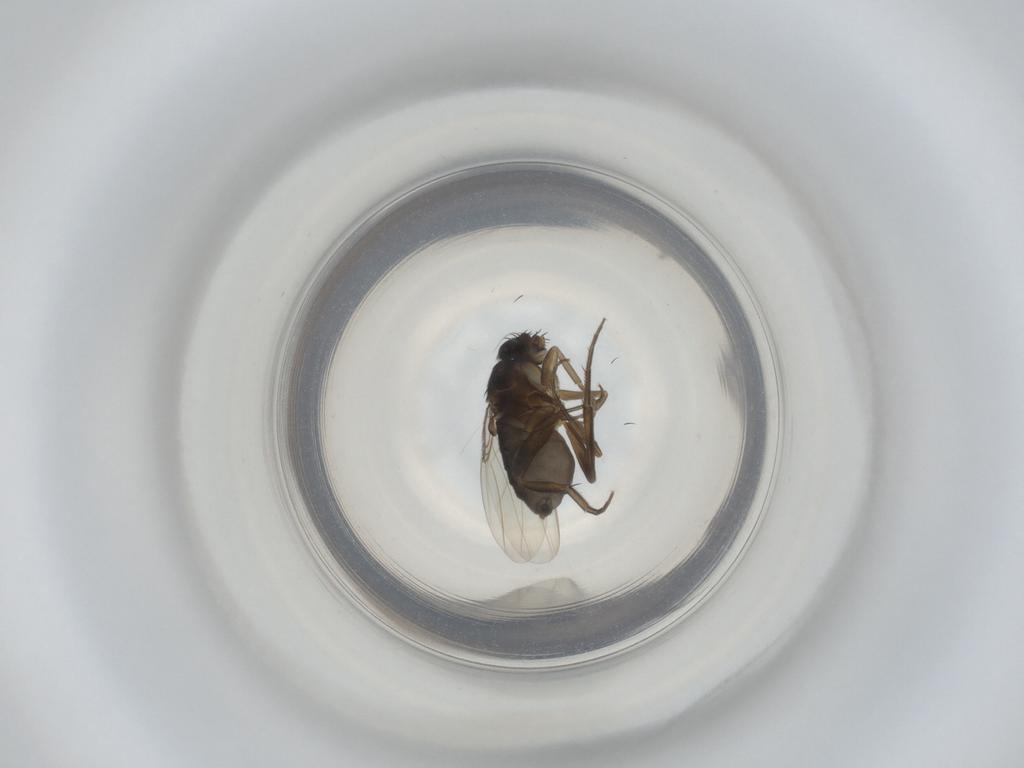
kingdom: Animalia
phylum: Arthropoda
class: Insecta
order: Diptera
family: Phoridae
